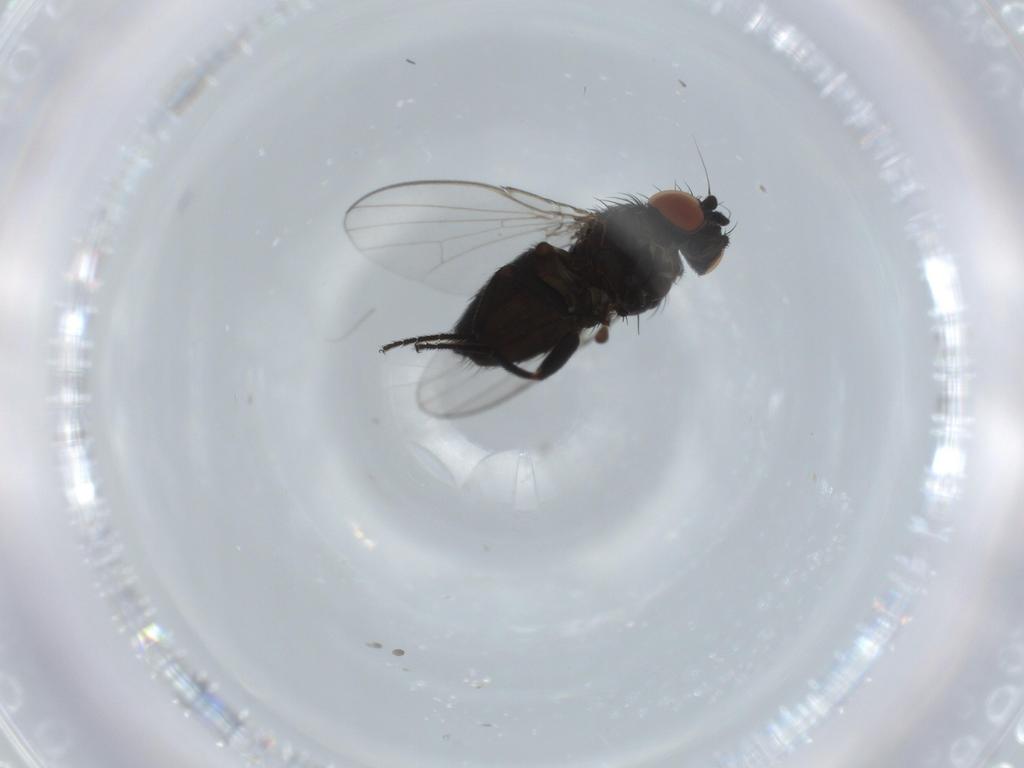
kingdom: Animalia
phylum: Arthropoda
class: Insecta
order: Diptera
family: Milichiidae
